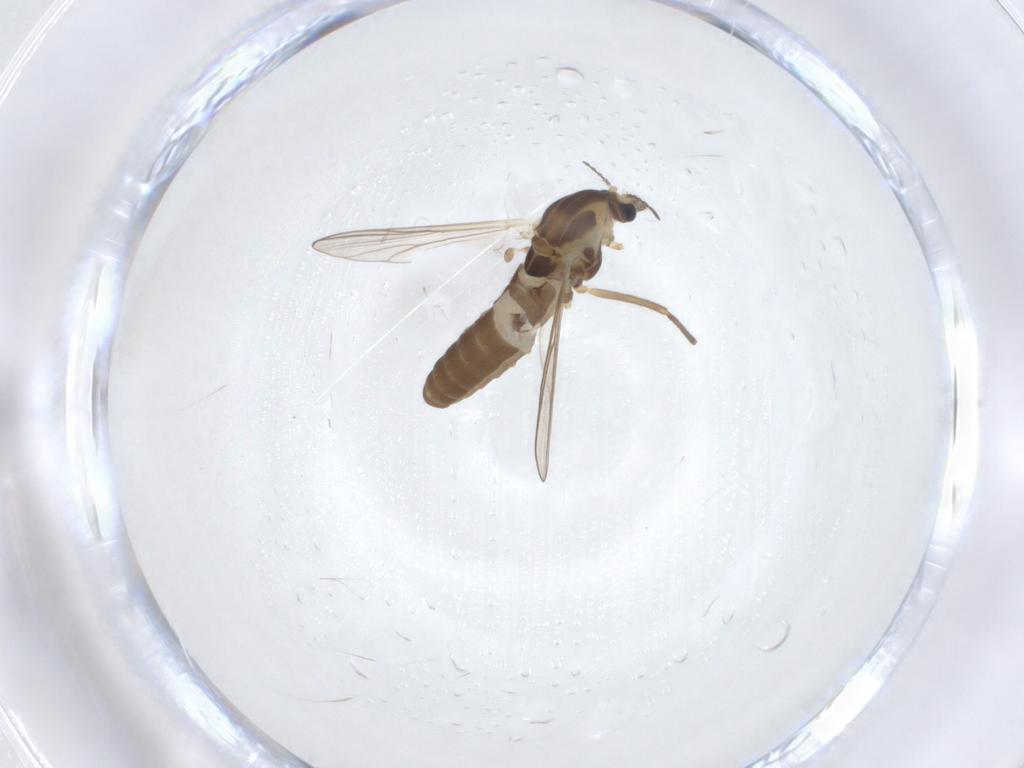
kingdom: Animalia
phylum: Arthropoda
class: Insecta
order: Diptera
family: Chironomidae
